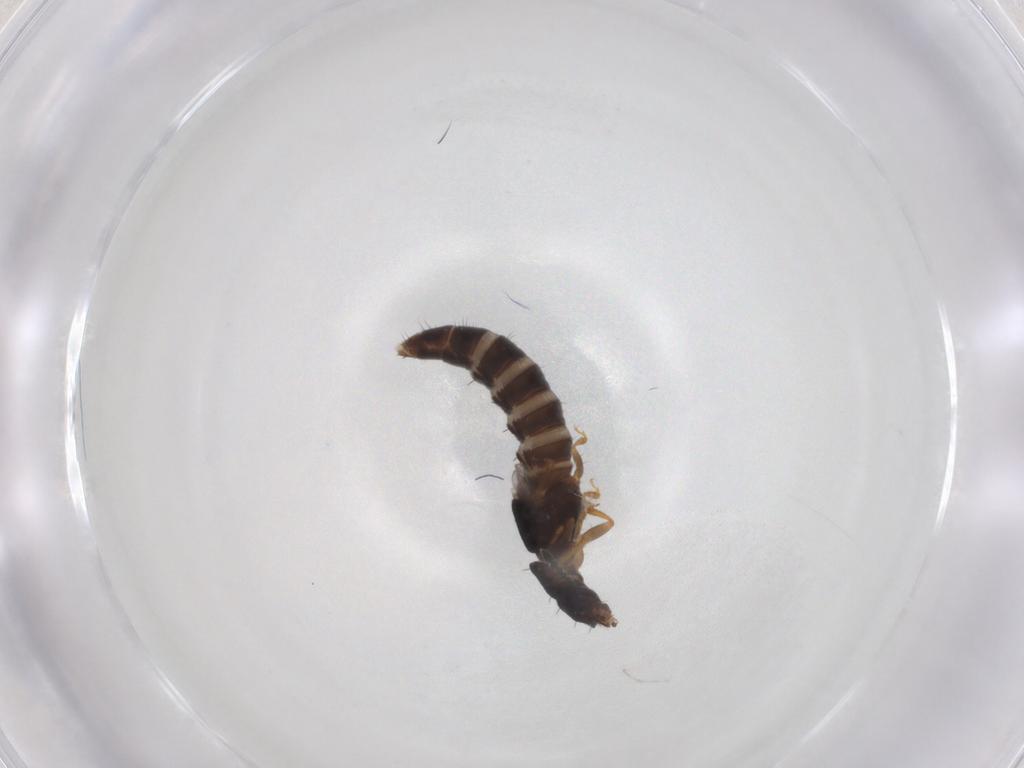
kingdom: Animalia
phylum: Arthropoda
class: Insecta
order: Coleoptera
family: Staphylinidae
